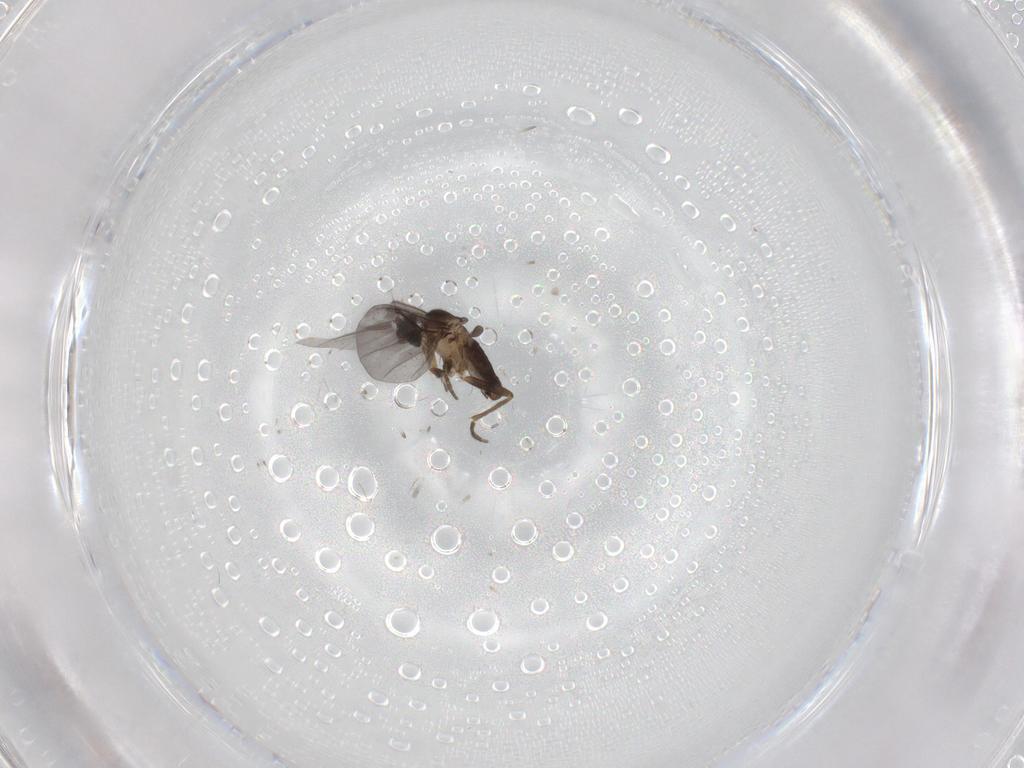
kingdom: Animalia
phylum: Arthropoda
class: Insecta
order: Diptera
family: Phoridae
